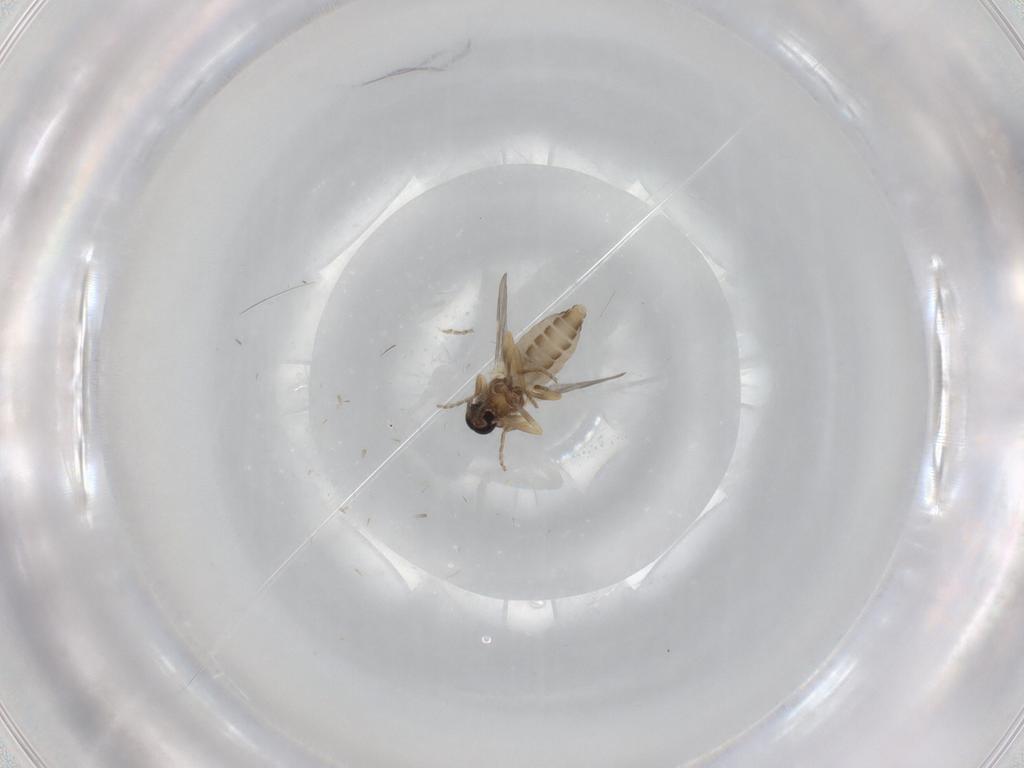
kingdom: Animalia
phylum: Arthropoda
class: Insecta
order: Diptera
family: Ceratopogonidae
